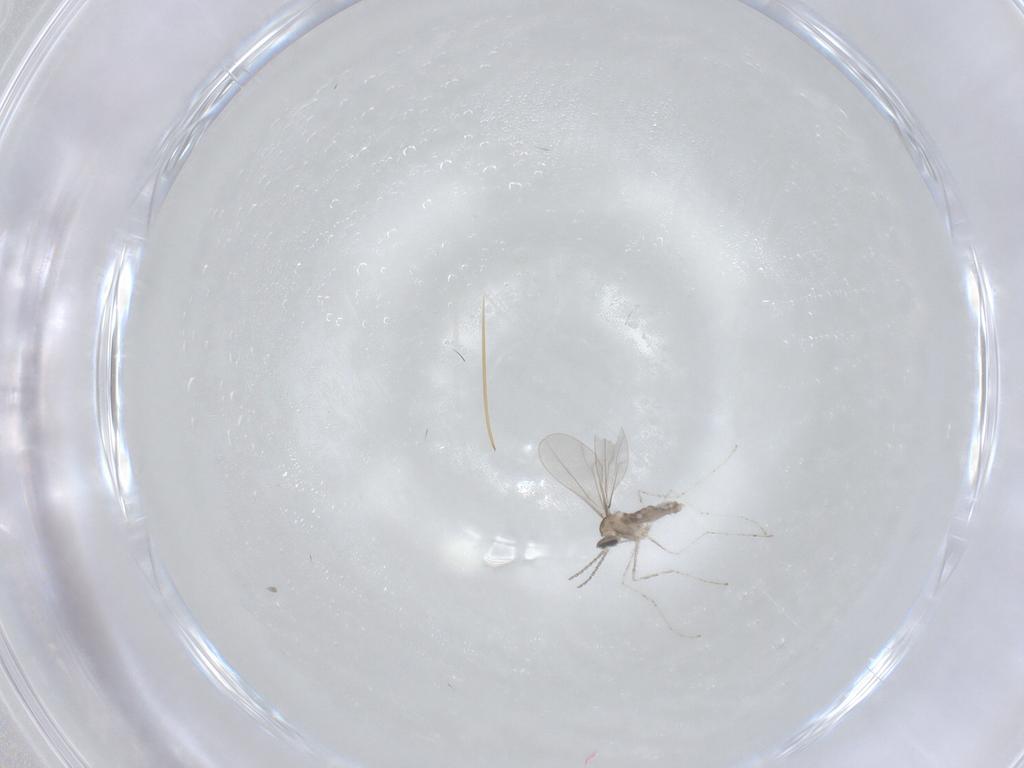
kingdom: Animalia
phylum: Arthropoda
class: Insecta
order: Diptera
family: Cecidomyiidae
